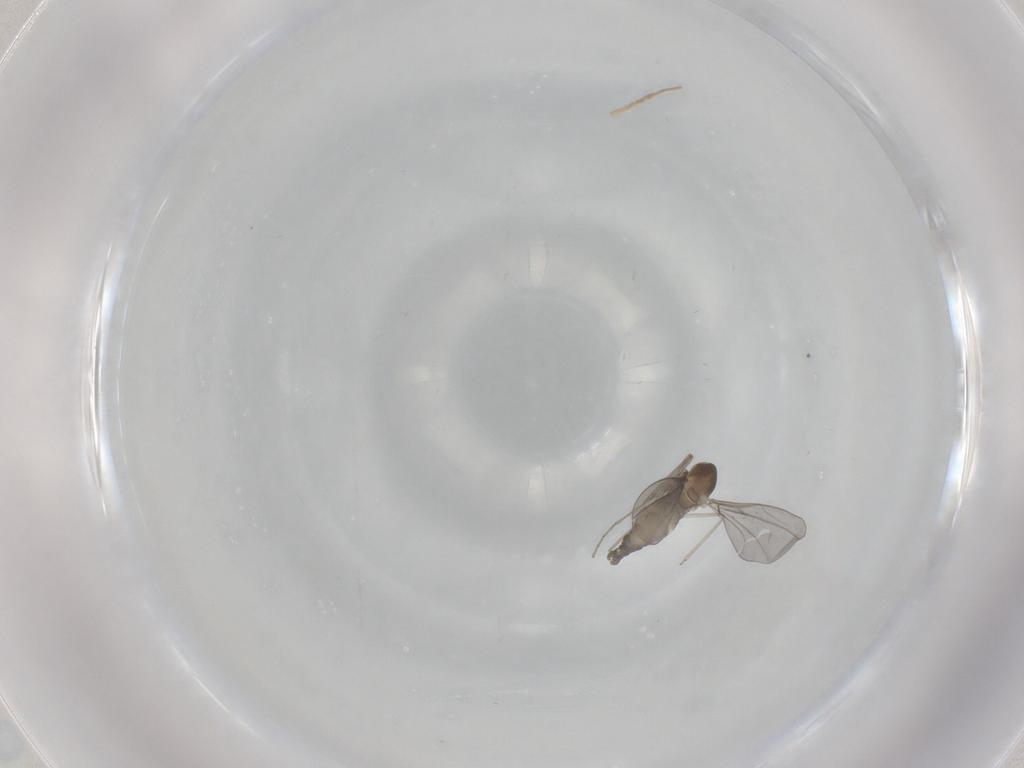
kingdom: Animalia
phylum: Arthropoda
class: Insecta
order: Diptera
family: Cecidomyiidae
